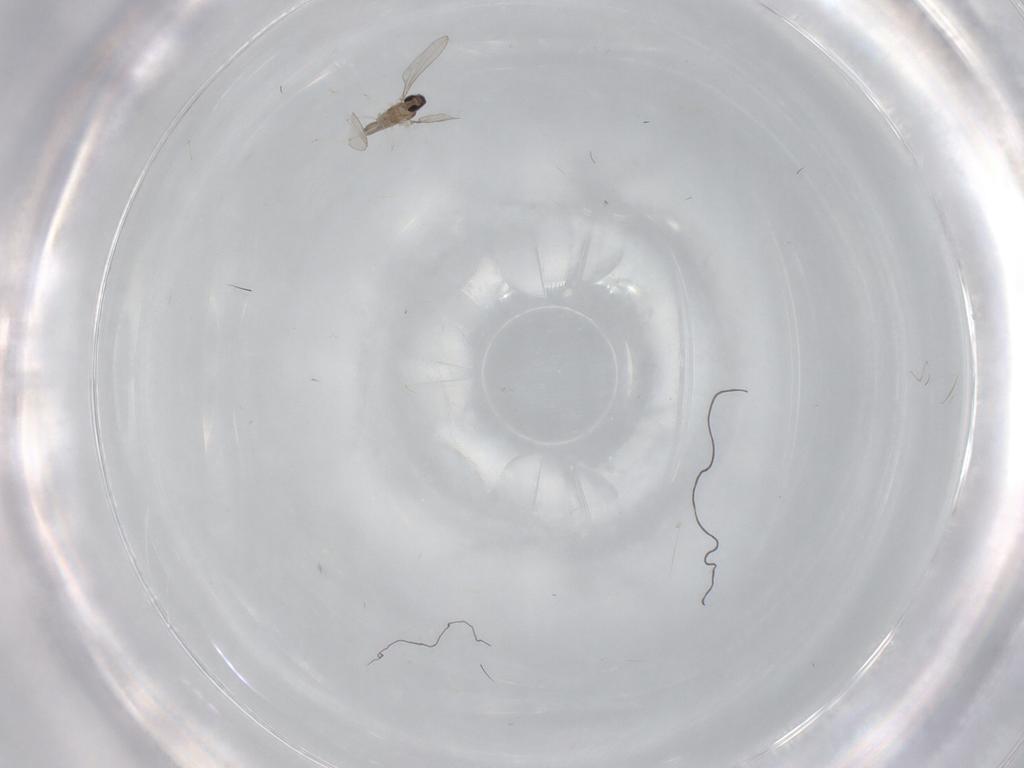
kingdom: Animalia
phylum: Arthropoda
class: Insecta
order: Diptera
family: Cecidomyiidae
